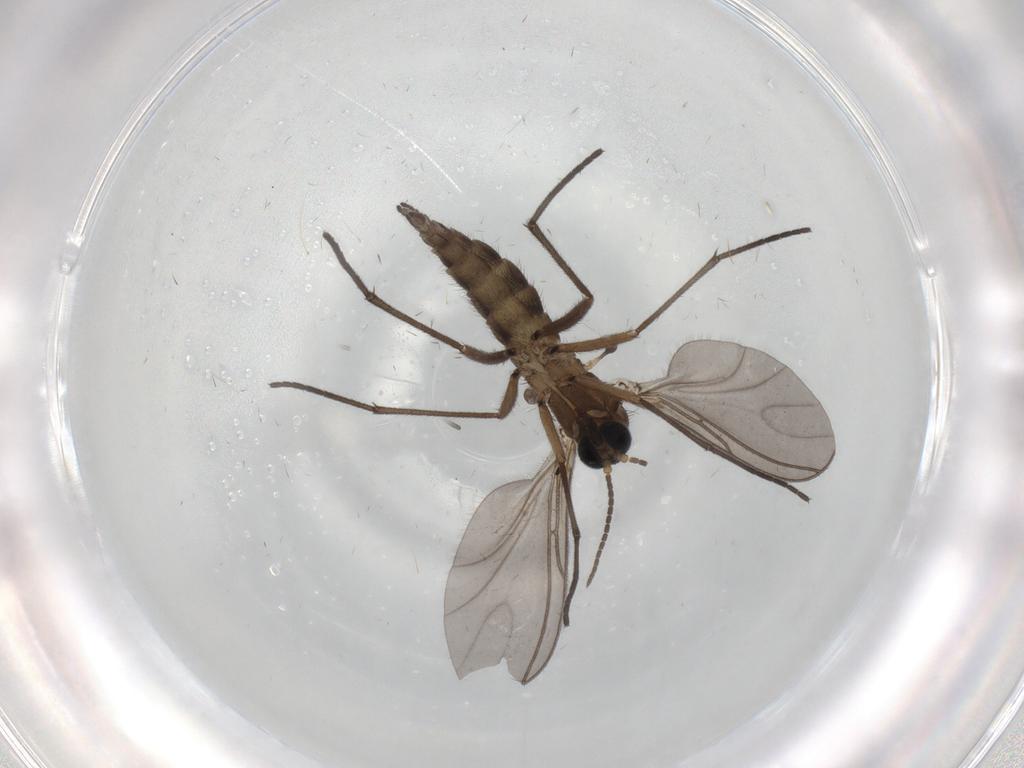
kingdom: Animalia
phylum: Arthropoda
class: Insecta
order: Diptera
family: Sciaridae
